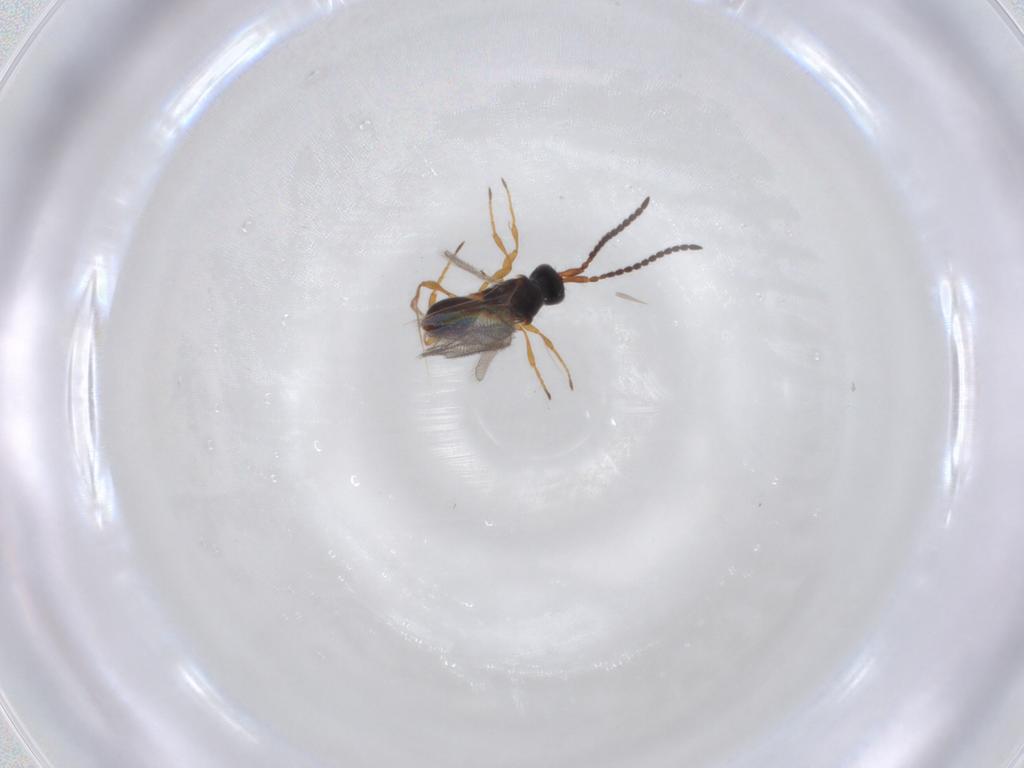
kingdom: Animalia
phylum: Arthropoda
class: Insecta
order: Hymenoptera
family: Diapriidae
